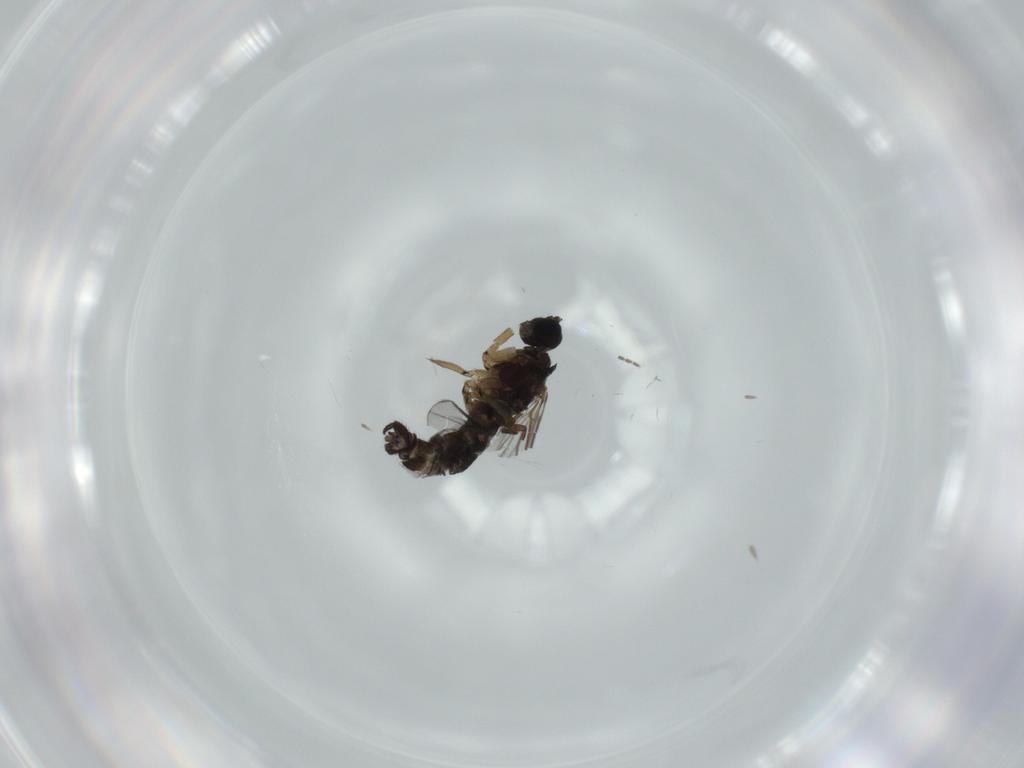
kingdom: Animalia
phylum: Arthropoda
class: Insecta
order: Diptera
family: Sciaridae
